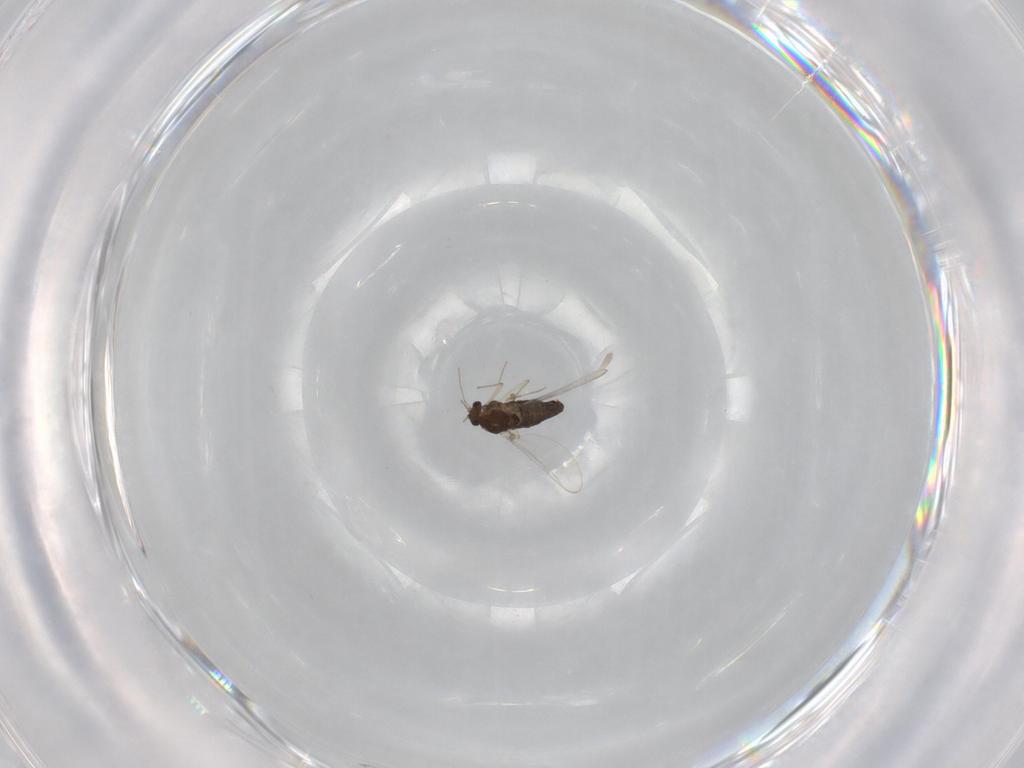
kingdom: Animalia
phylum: Arthropoda
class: Insecta
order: Diptera
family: Chironomidae
